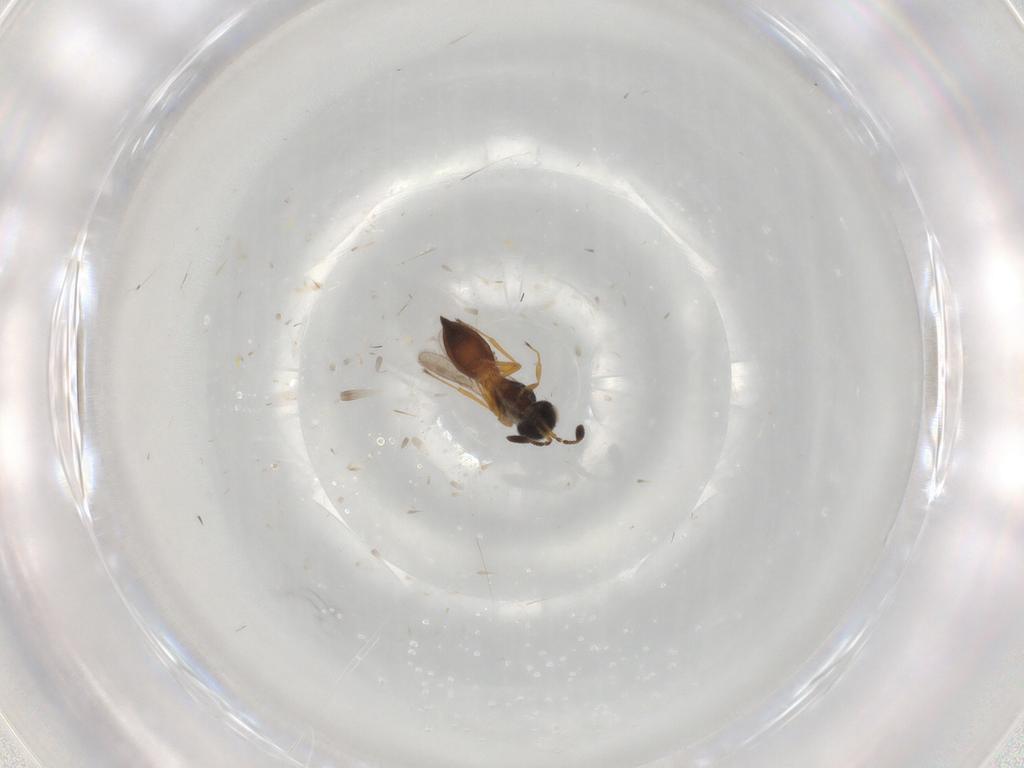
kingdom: Animalia
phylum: Arthropoda
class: Insecta
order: Hymenoptera
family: Scelionidae
